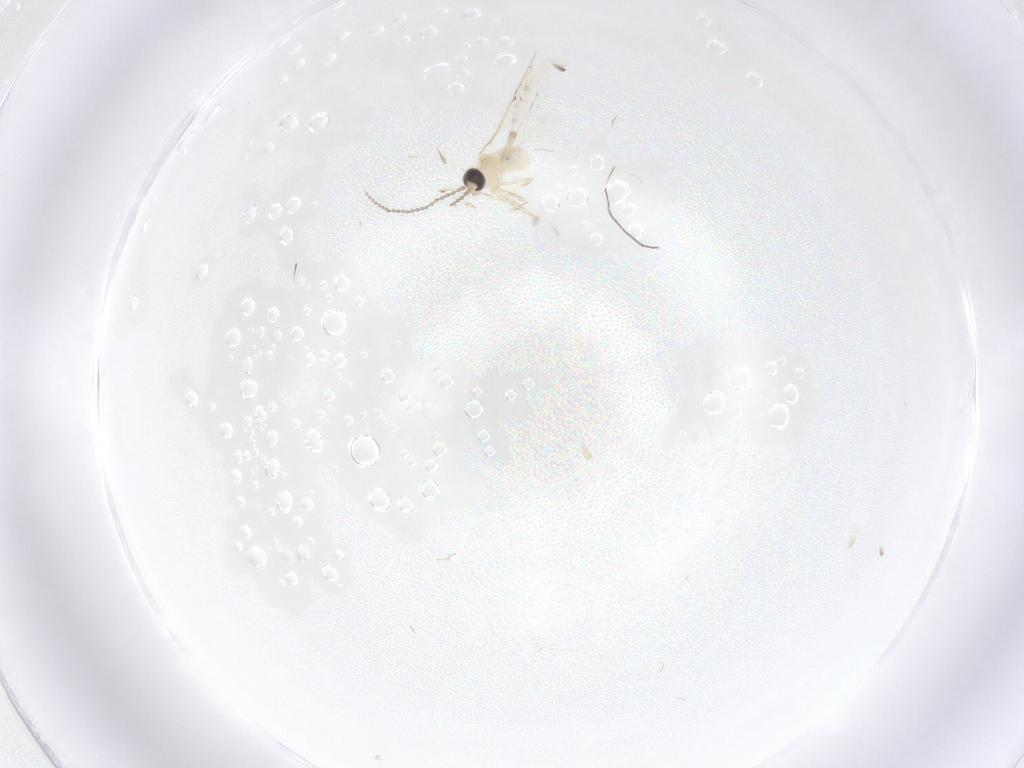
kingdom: Animalia
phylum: Arthropoda
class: Insecta
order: Diptera
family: Cecidomyiidae
